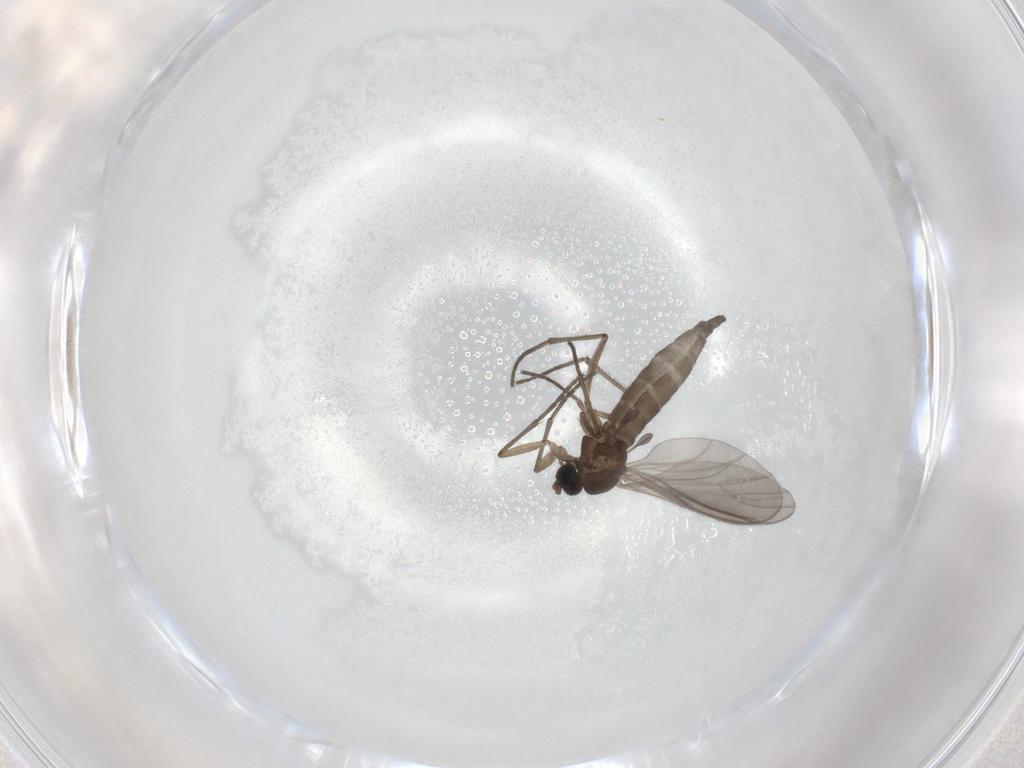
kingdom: Animalia
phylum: Arthropoda
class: Insecta
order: Diptera
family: Sciaridae
